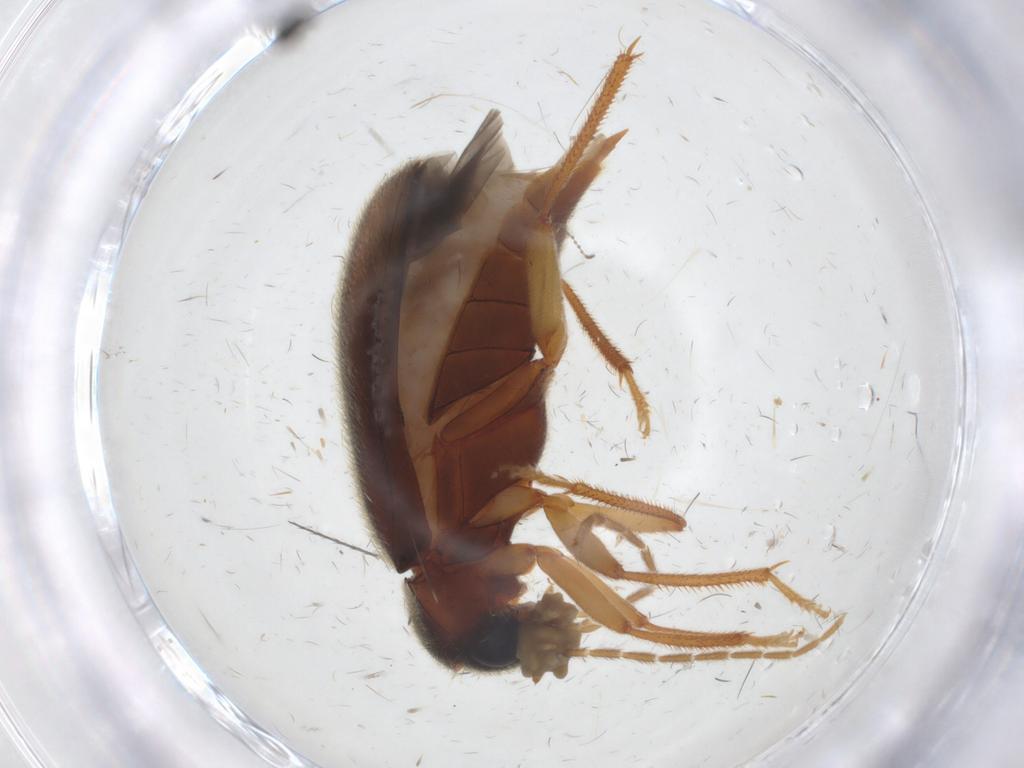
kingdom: Animalia
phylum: Arthropoda
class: Insecta
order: Coleoptera
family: Ptilodactylidae
